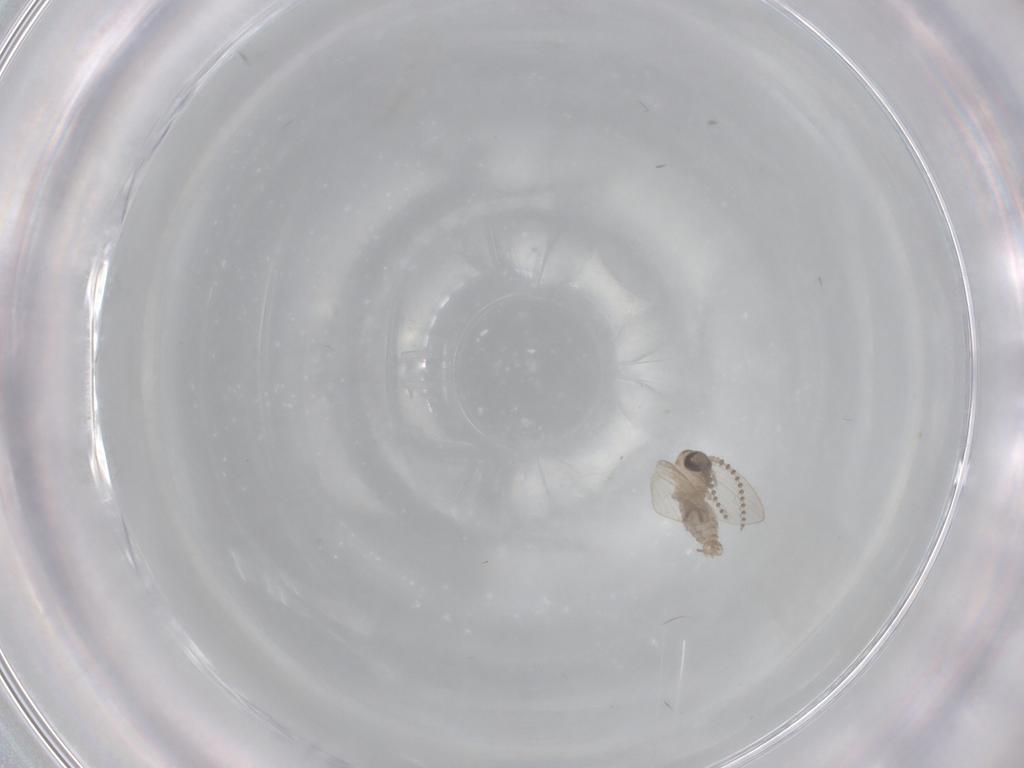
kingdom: Animalia
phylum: Arthropoda
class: Insecta
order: Diptera
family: Psychodidae
